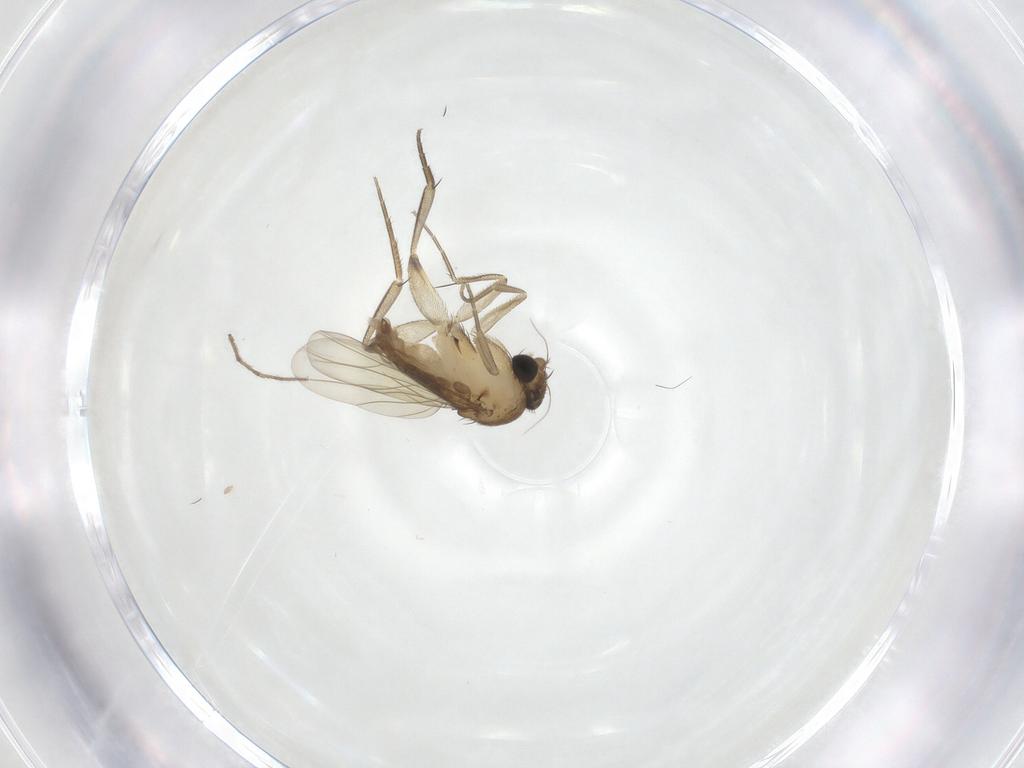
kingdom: Animalia
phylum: Arthropoda
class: Insecta
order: Diptera
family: Phoridae
